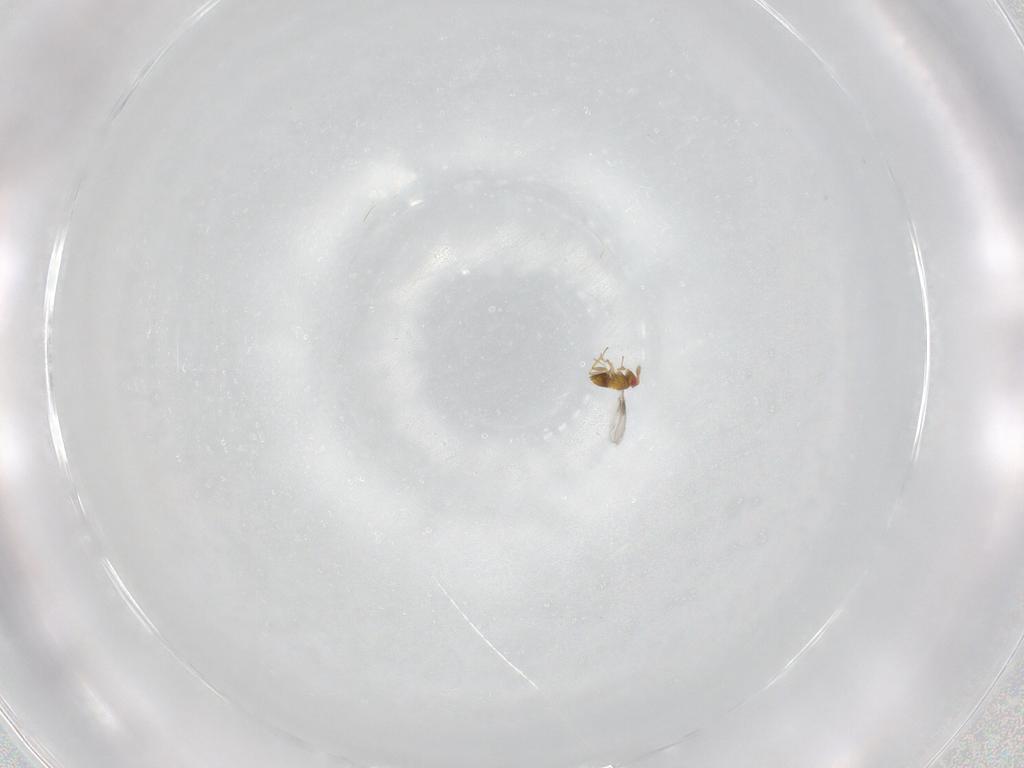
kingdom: Animalia
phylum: Arthropoda
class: Insecta
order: Hymenoptera
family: Trichogrammatidae
